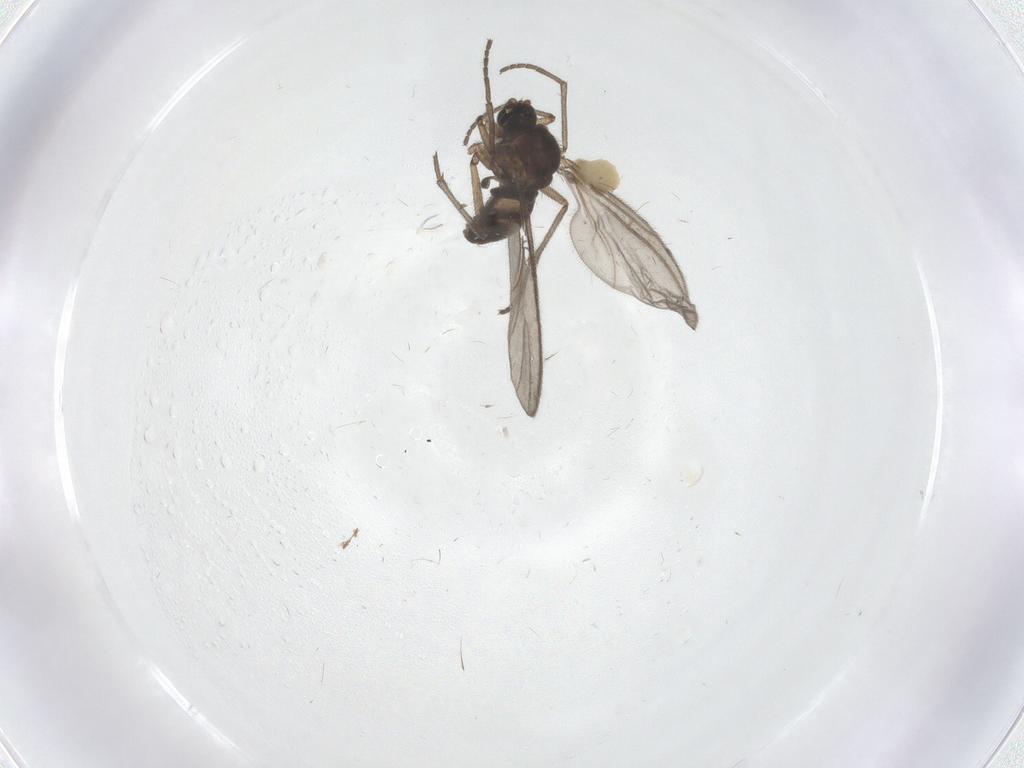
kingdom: Animalia
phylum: Arthropoda
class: Insecta
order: Diptera
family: Sciaridae
